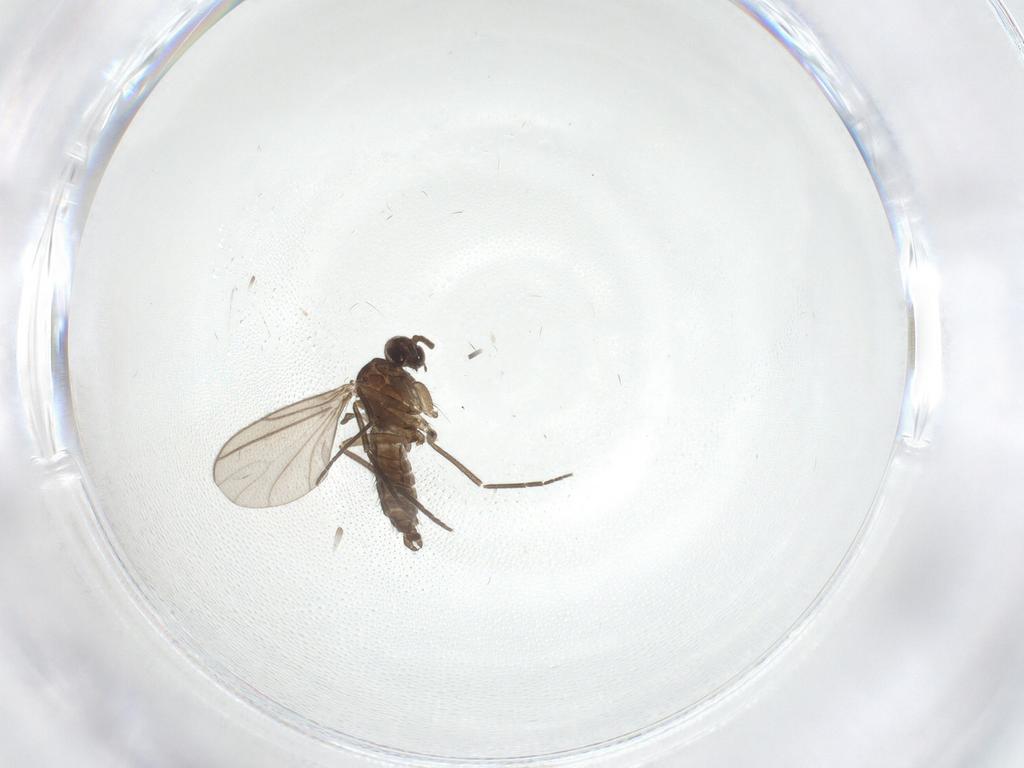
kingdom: Animalia
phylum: Arthropoda
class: Insecta
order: Diptera
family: Sciaridae
